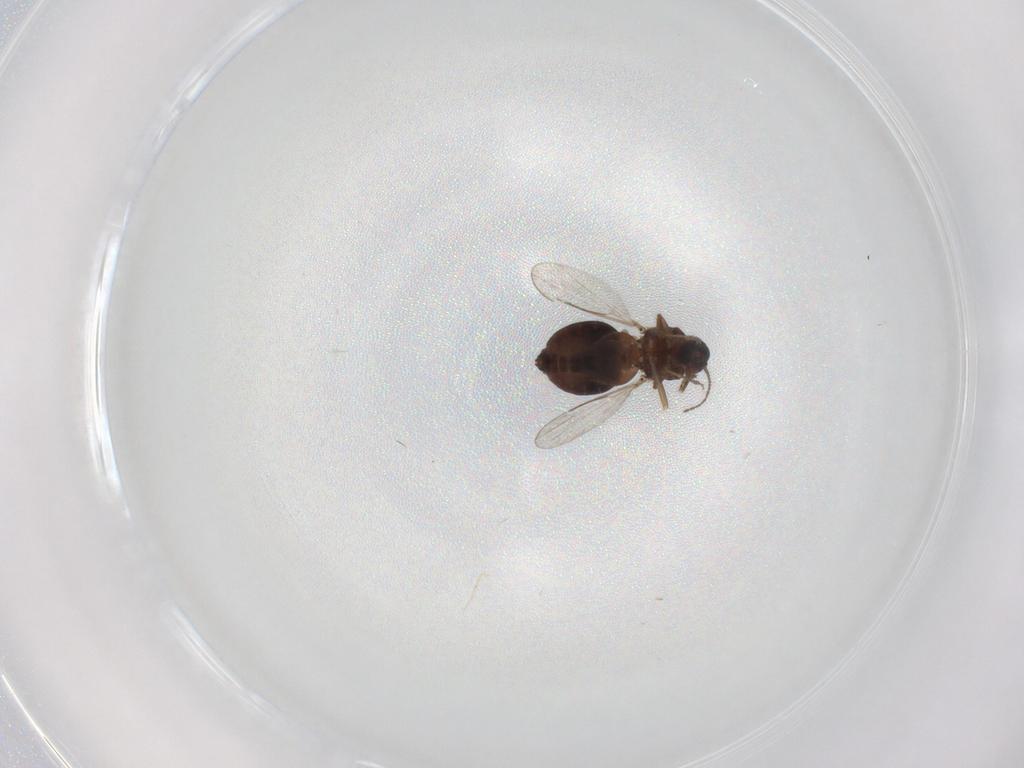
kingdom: Animalia
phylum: Arthropoda
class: Insecta
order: Diptera
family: Ceratopogonidae
